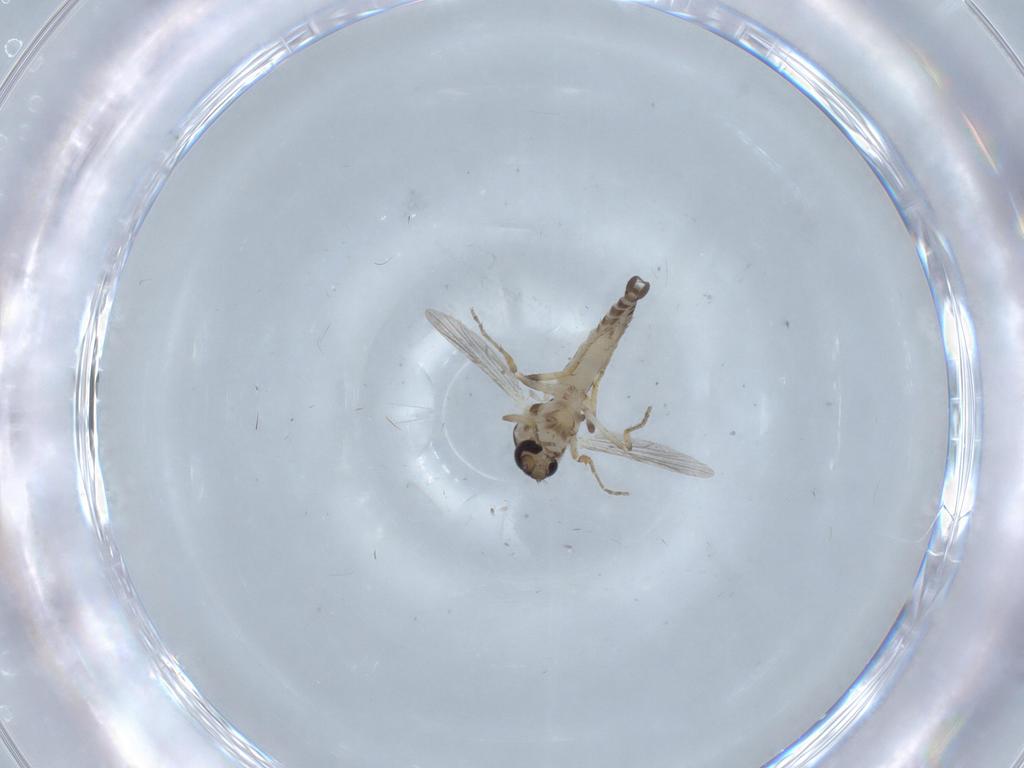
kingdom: Animalia
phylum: Arthropoda
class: Insecta
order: Diptera
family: Ceratopogonidae
